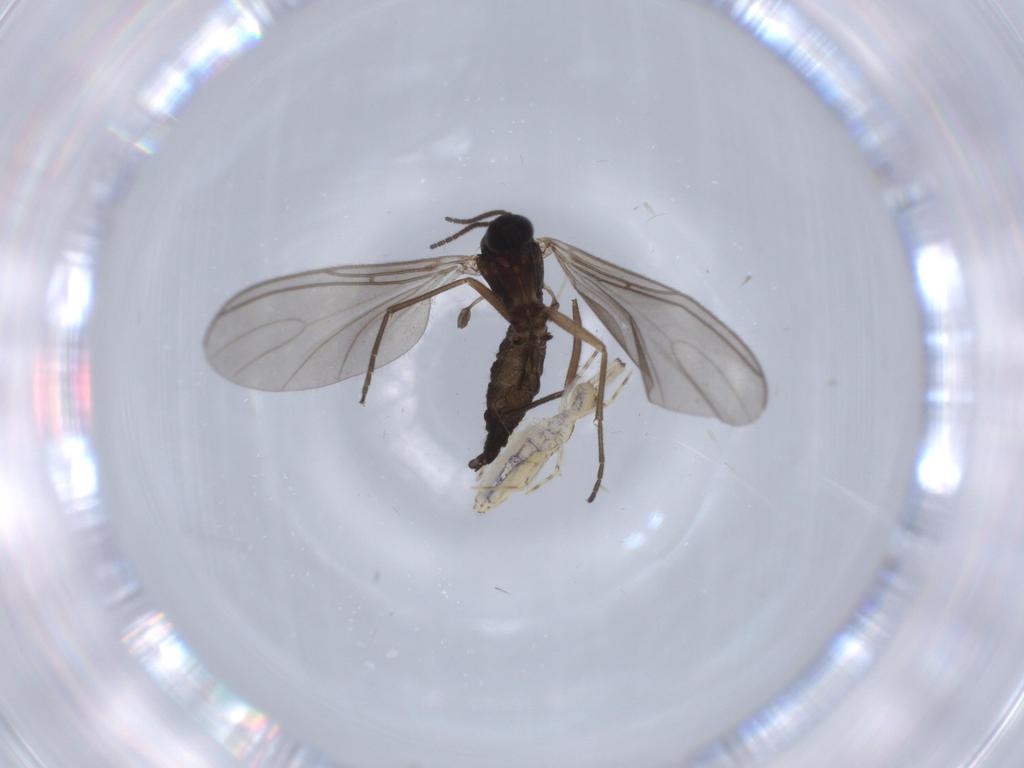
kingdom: Animalia
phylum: Arthropoda
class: Insecta
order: Diptera
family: Sciaridae
